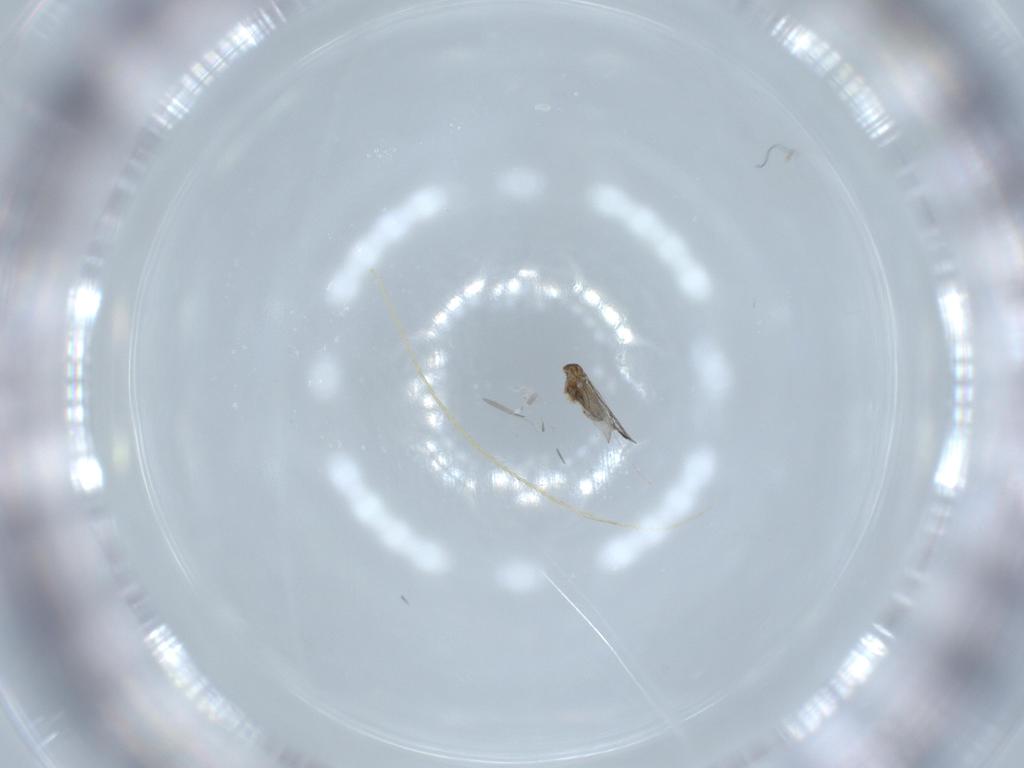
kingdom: Animalia
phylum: Arthropoda
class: Insecta
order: Diptera
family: Cecidomyiidae
